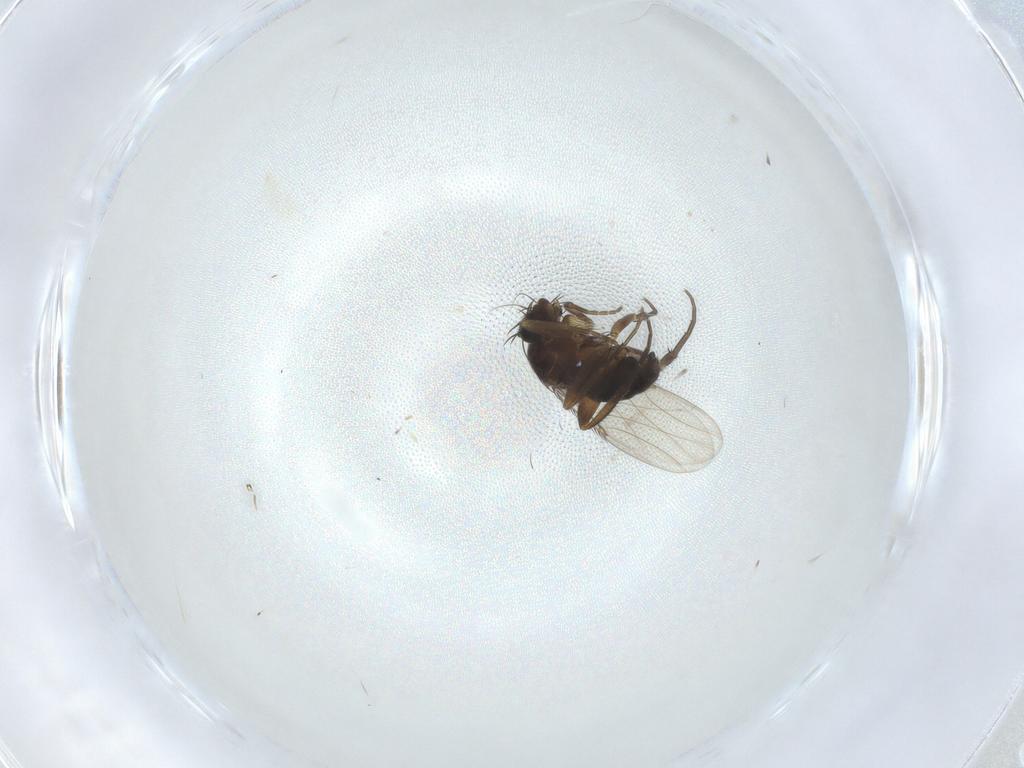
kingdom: Animalia
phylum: Arthropoda
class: Insecta
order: Diptera
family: Phoridae
